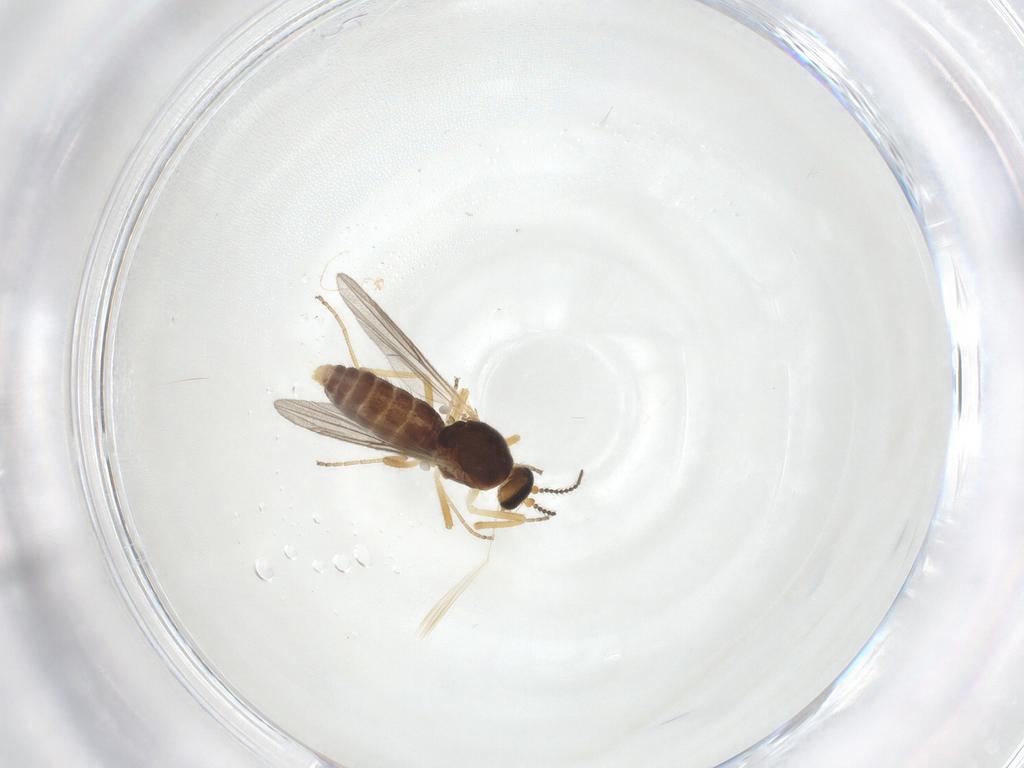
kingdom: Animalia
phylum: Arthropoda
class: Insecta
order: Diptera
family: Ceratopogonidae
